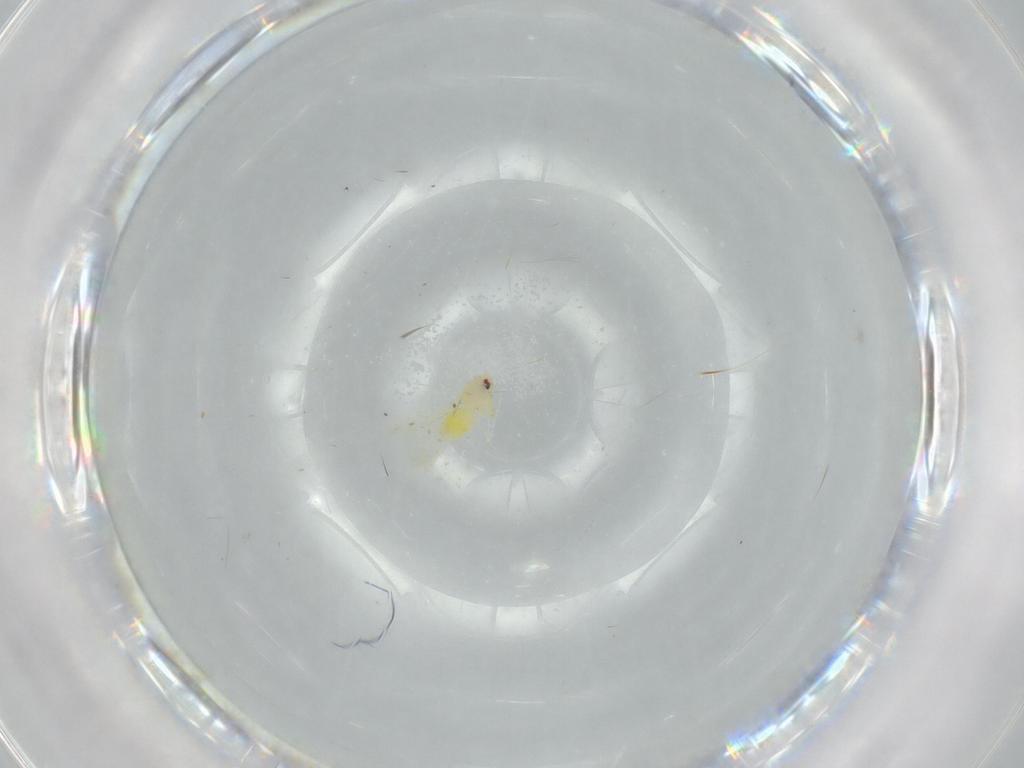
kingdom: Animalia
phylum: Arthropoda
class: Insecta
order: Hemiptera
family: Aleyrodidae
